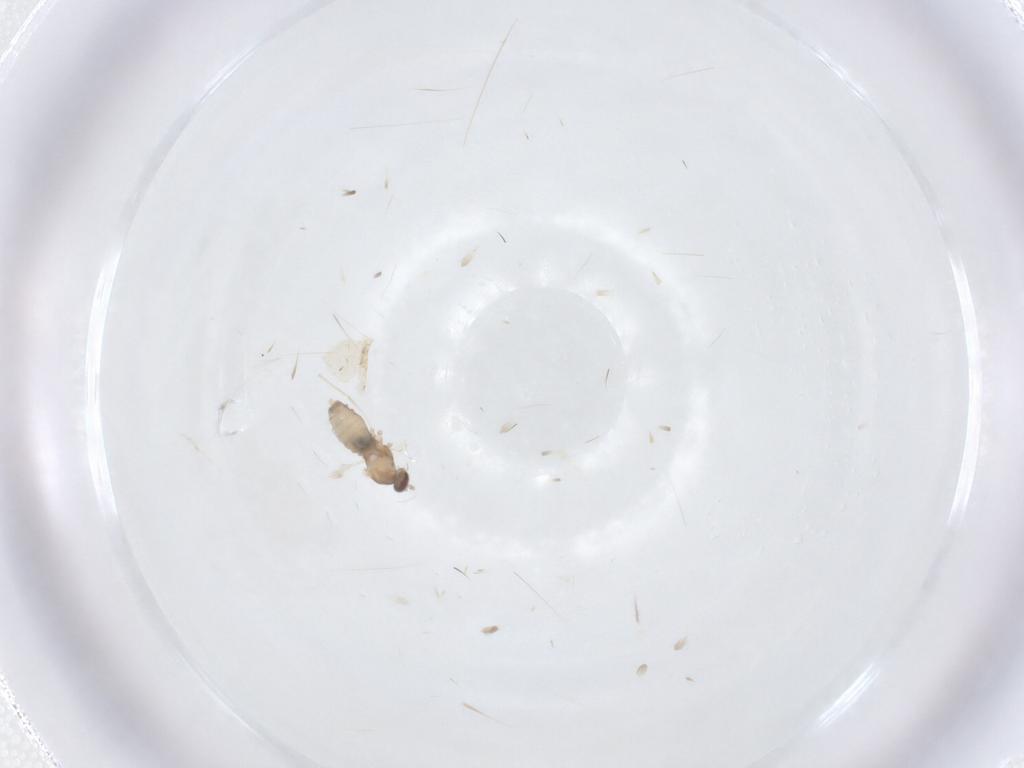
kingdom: Animalia
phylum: Arthropoda
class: Insecta
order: Diptera
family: Cecidomyiidae
